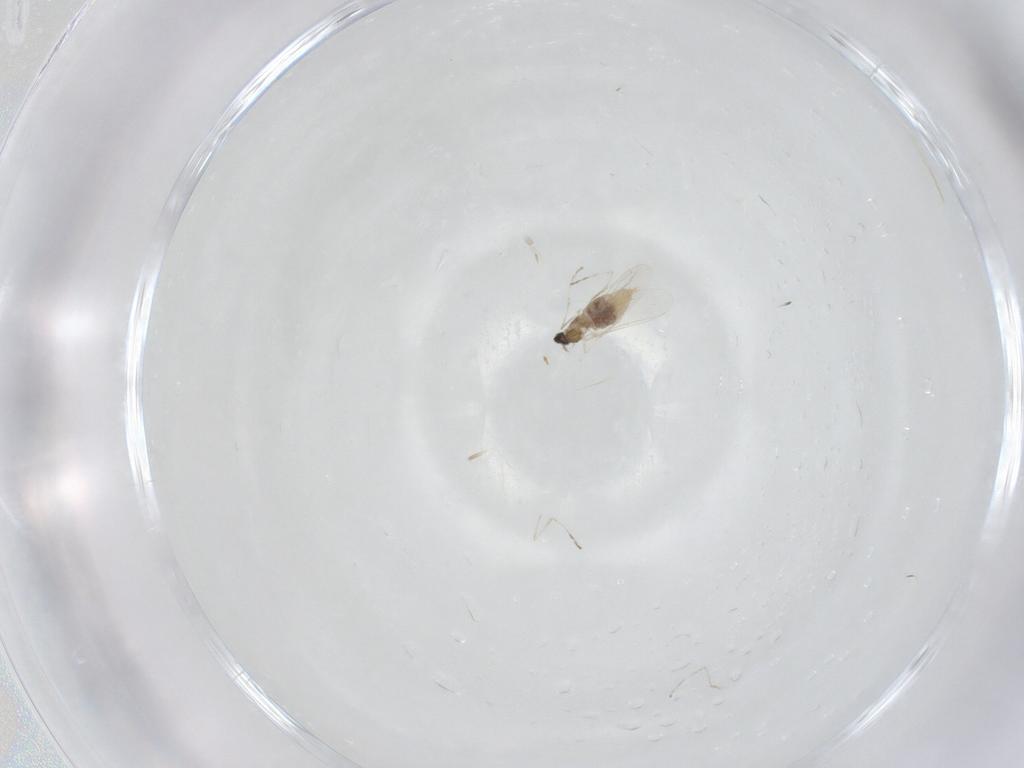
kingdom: Animalia
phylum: Arthropoda
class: Insecta
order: Diptera
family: Cecidomyiidae
